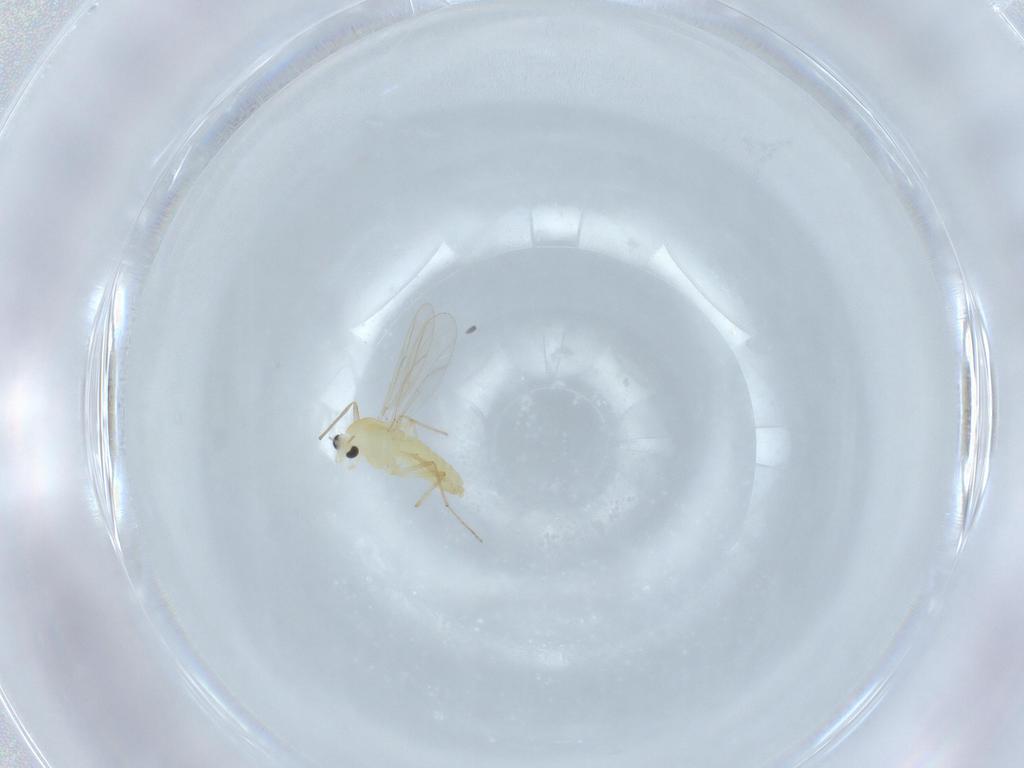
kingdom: Animalia
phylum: Arthropoda
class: Insecta
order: Diptera
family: Chironomidae
